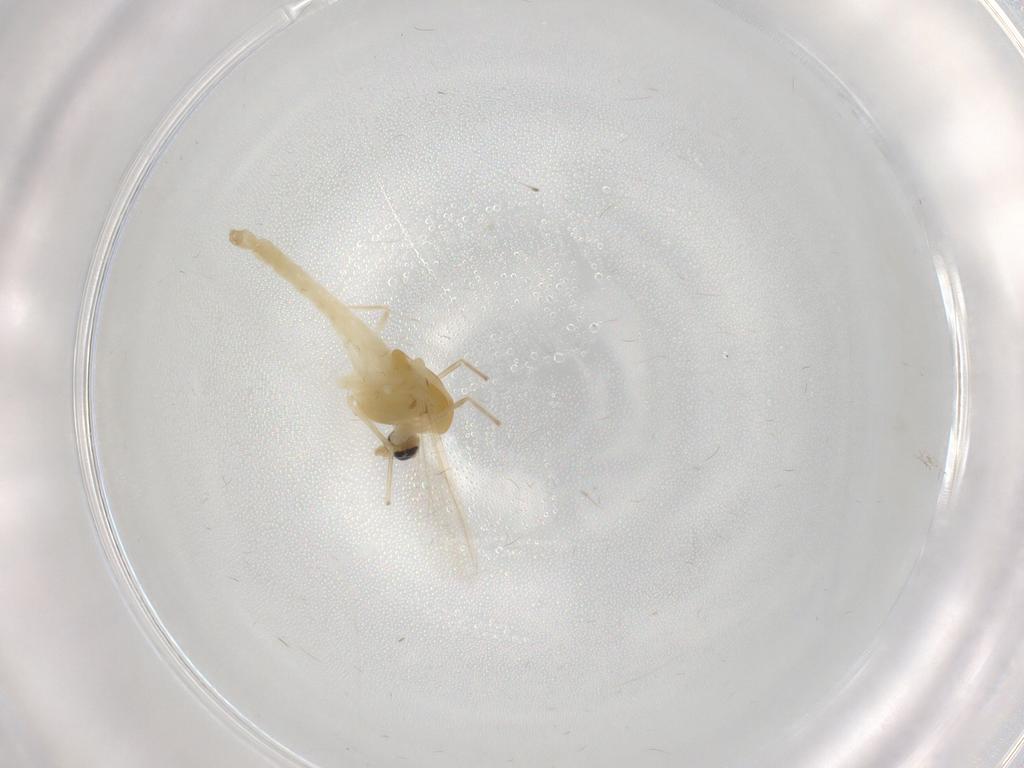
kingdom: Animalia
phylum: Arthropoda
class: Insecta
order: Diptera
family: Chironomidae
